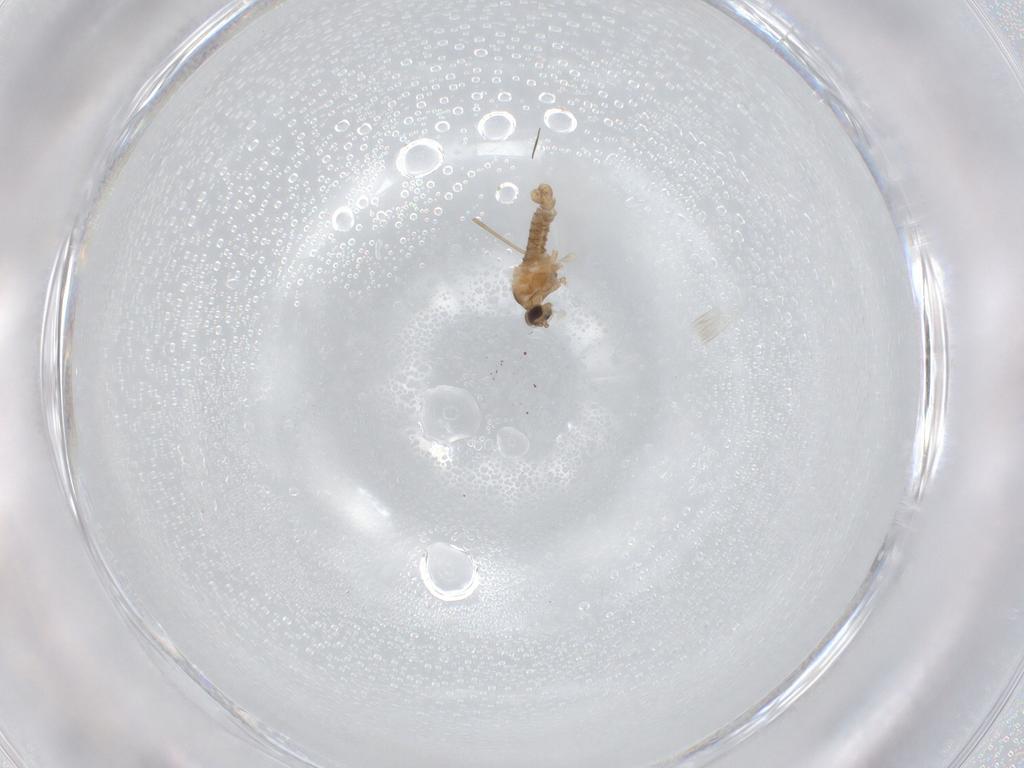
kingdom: Animalia
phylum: Arthropoda
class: Insecta
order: Diptera
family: Cecidomyiidae
